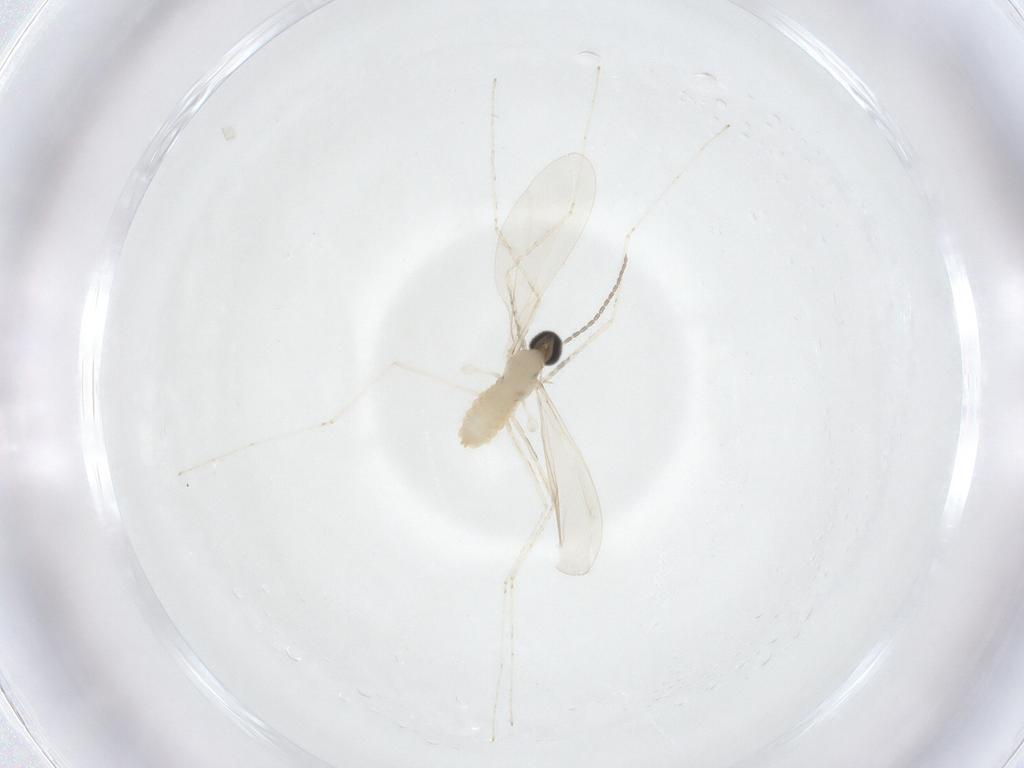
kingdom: Animalia
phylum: Arthropoda
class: Insecta
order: Diptera
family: Cecidomyiidae
